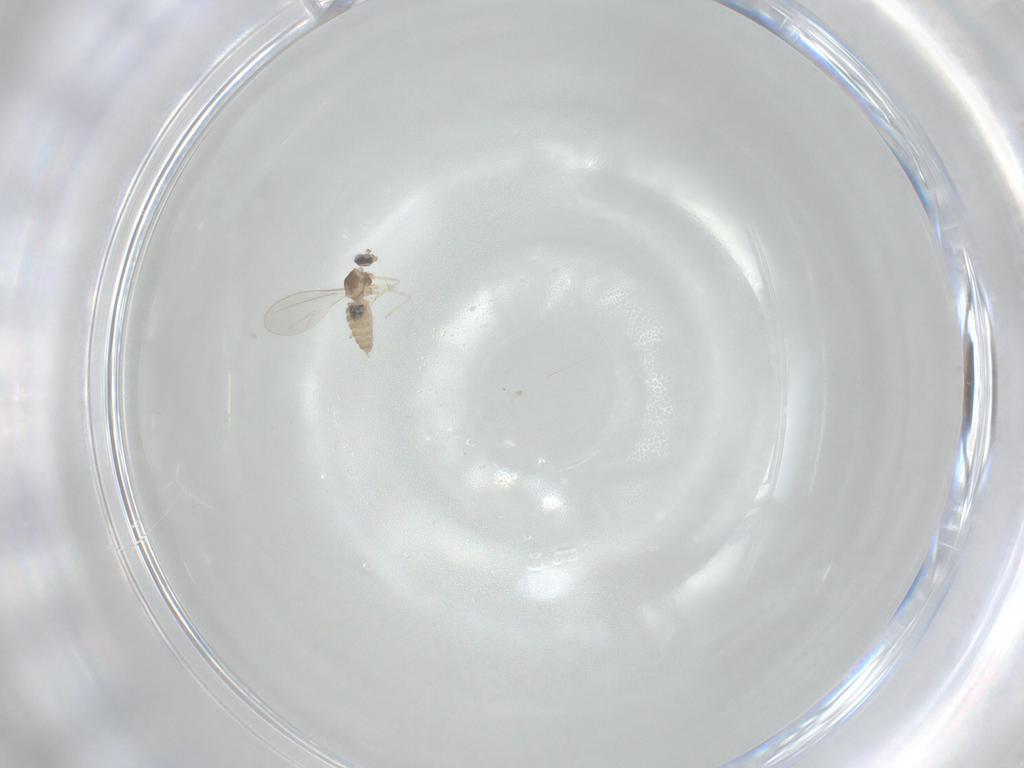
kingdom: Animalia
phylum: Arthropoda
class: Insecta
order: Diptera
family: Cecidomyiidae
